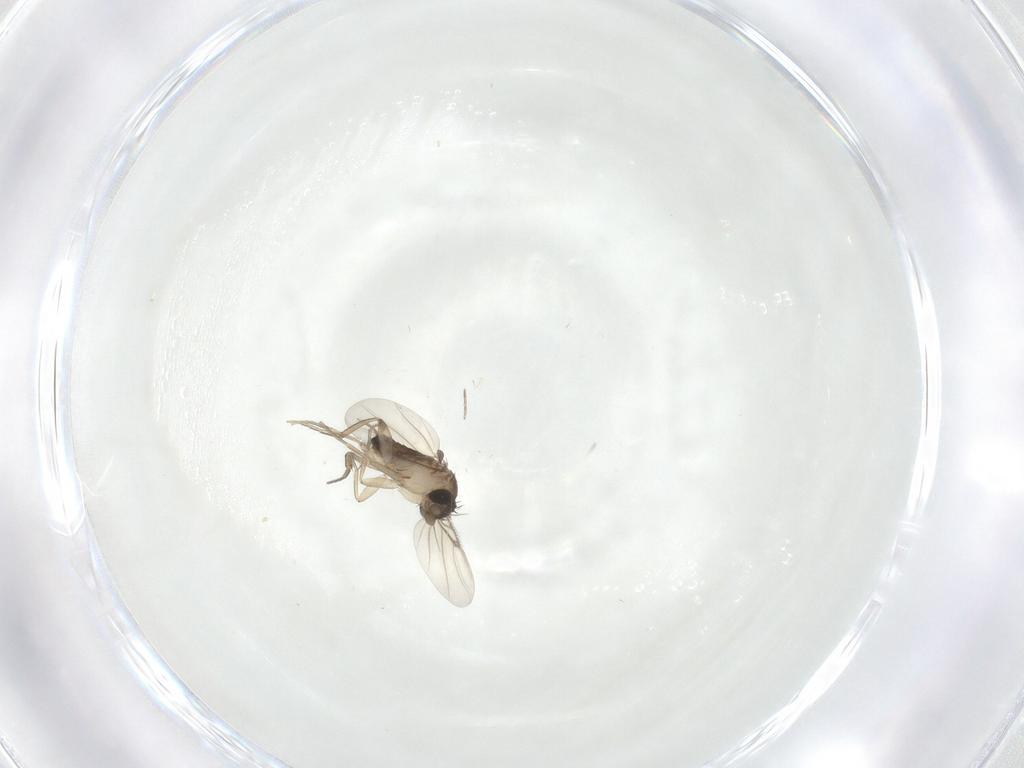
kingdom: Animalia
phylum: Arthropoda
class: Insecta
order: Diptera
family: Phoridae
